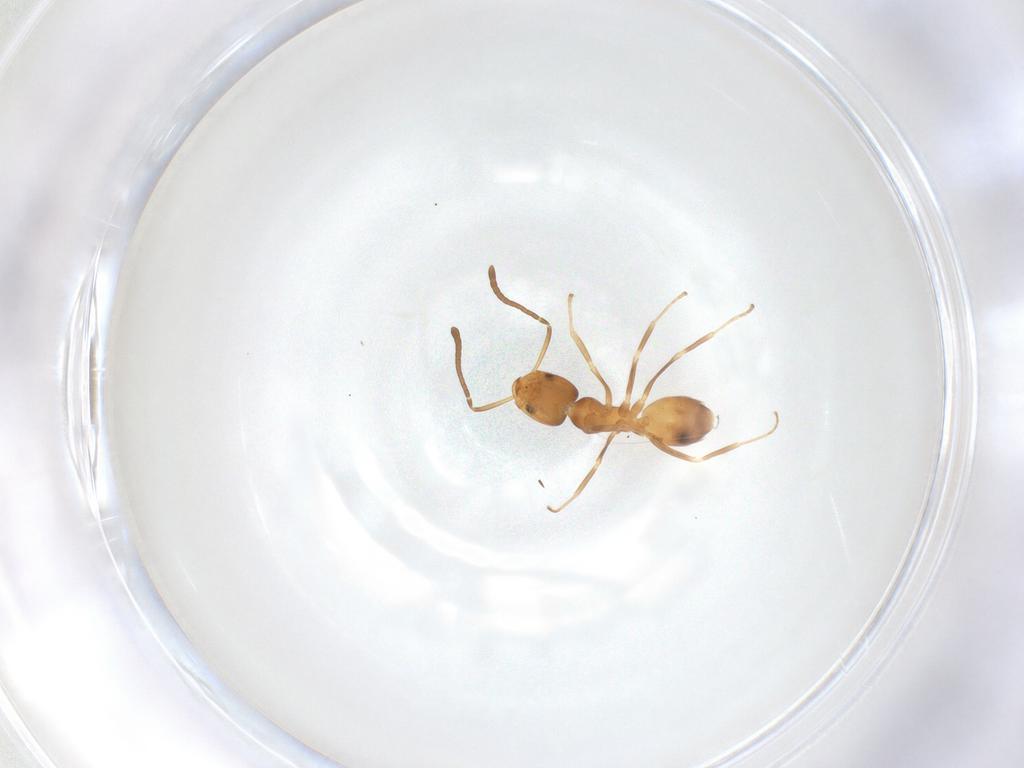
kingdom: Animalia
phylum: Arthropoda
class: Insecta
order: Hymenoptera
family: Formicidae
